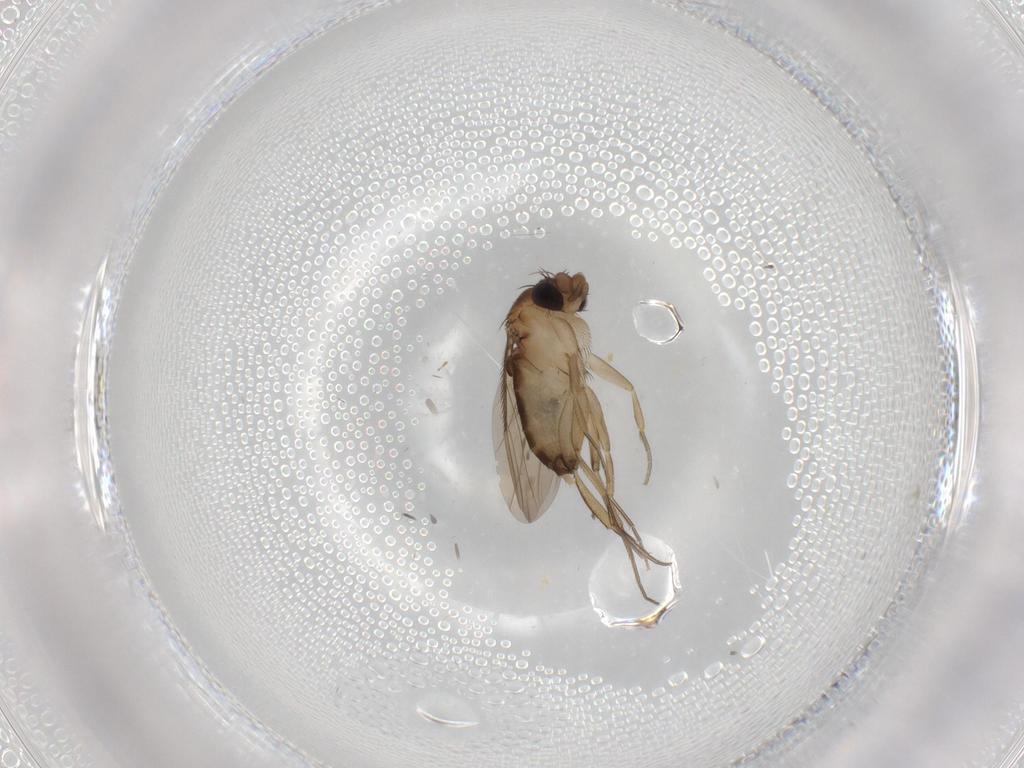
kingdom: Animalia
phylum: Arthropoda
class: Insecta
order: Diptera
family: Phoridae
